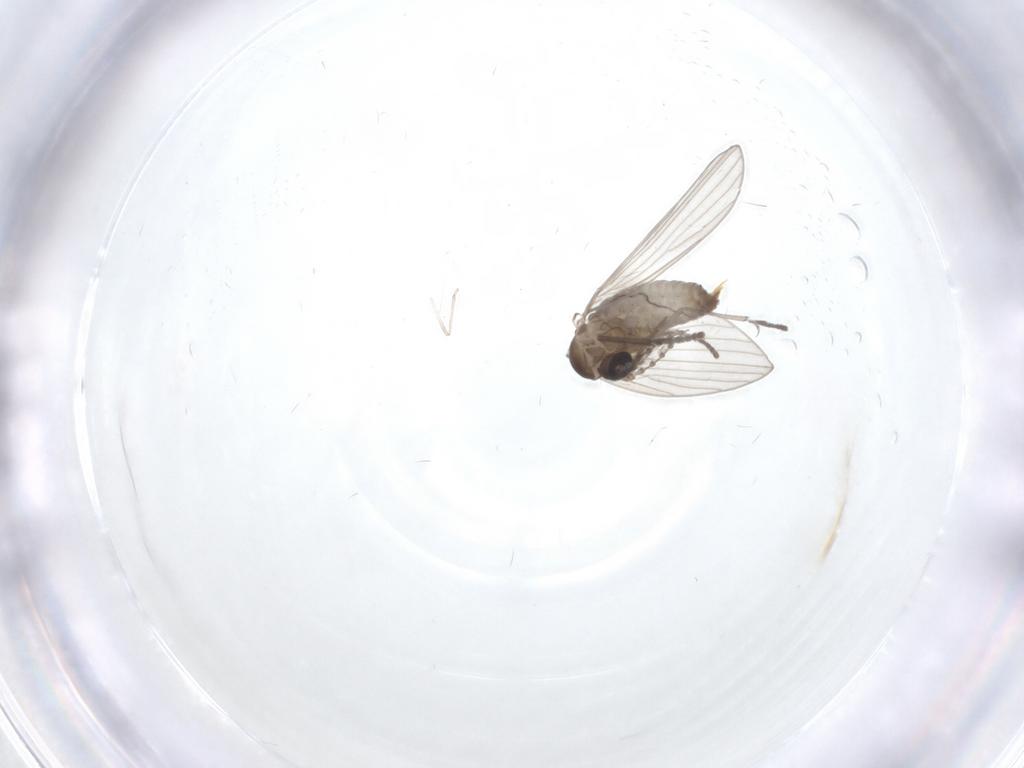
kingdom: Animalia
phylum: Arthropoda
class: Insecta
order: Diptera
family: Psychodidae
